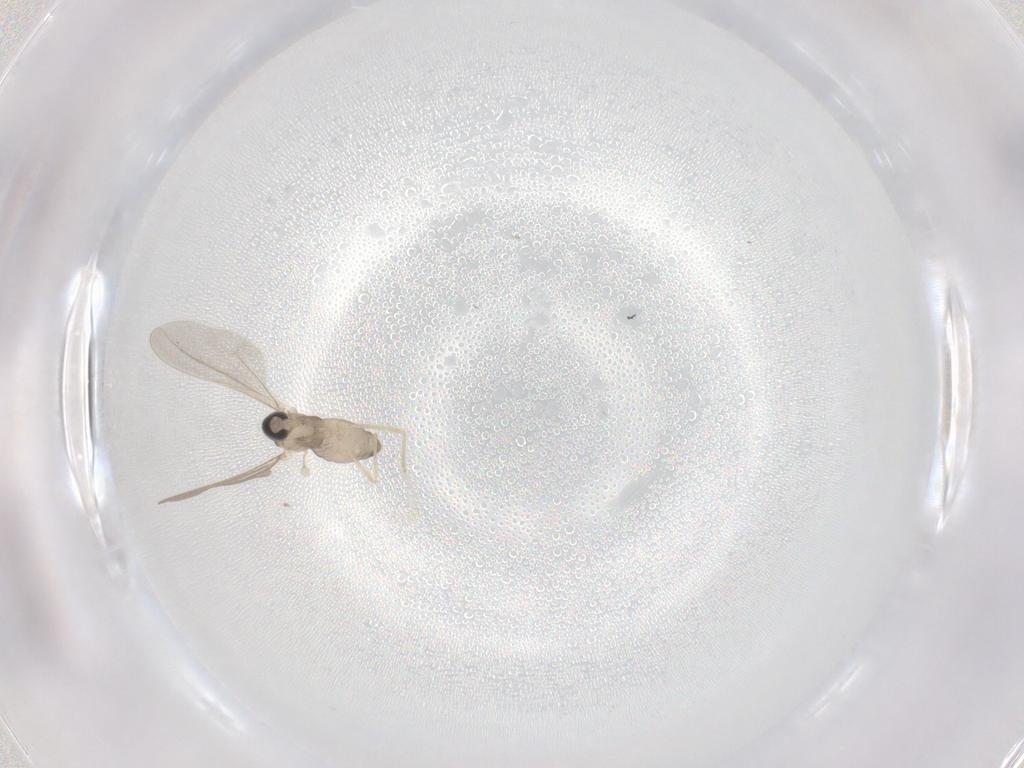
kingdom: Animalia
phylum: Arthropoda
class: Insecta
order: Diptera
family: Cecidomyiidae
